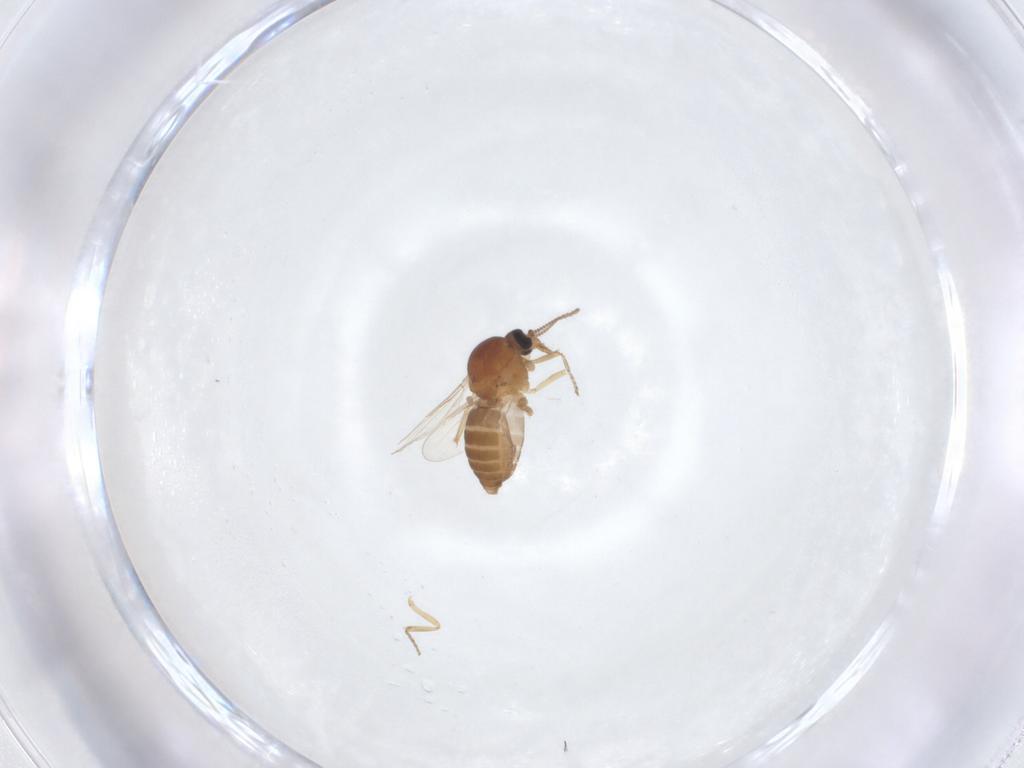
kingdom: Animalia
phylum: Arthropoda
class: Insecta
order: Diptera
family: Ceratopogonidae
